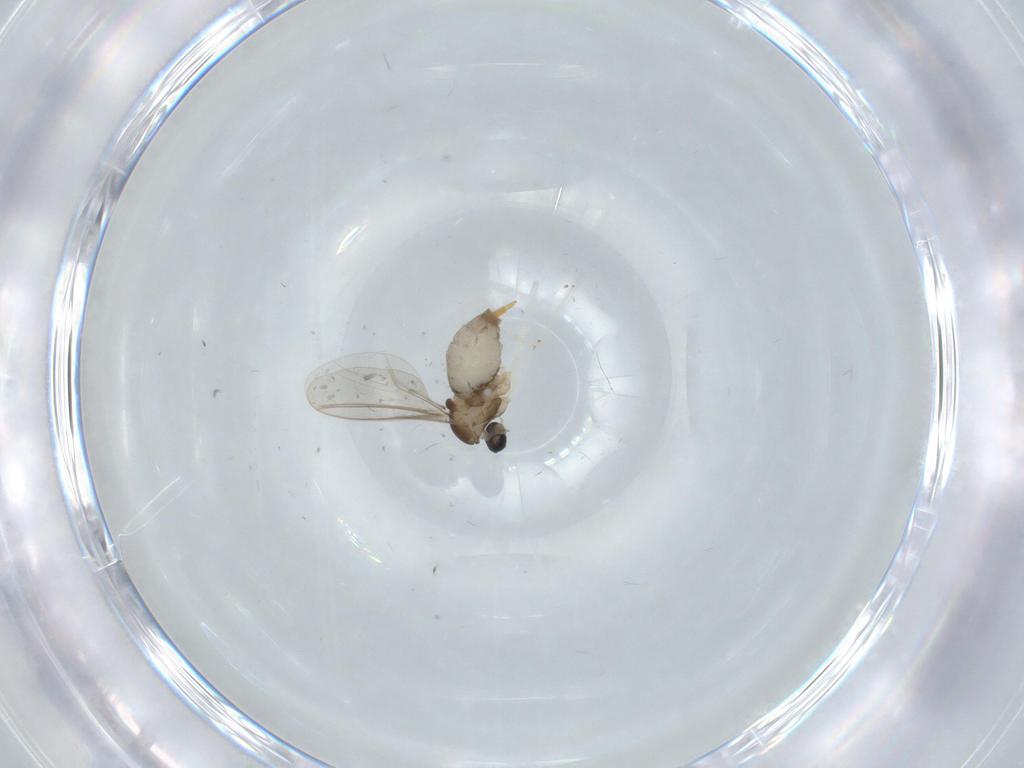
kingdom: Animalia
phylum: Arthropoda
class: Insecta
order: Diptera
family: Cecidomyiidae
